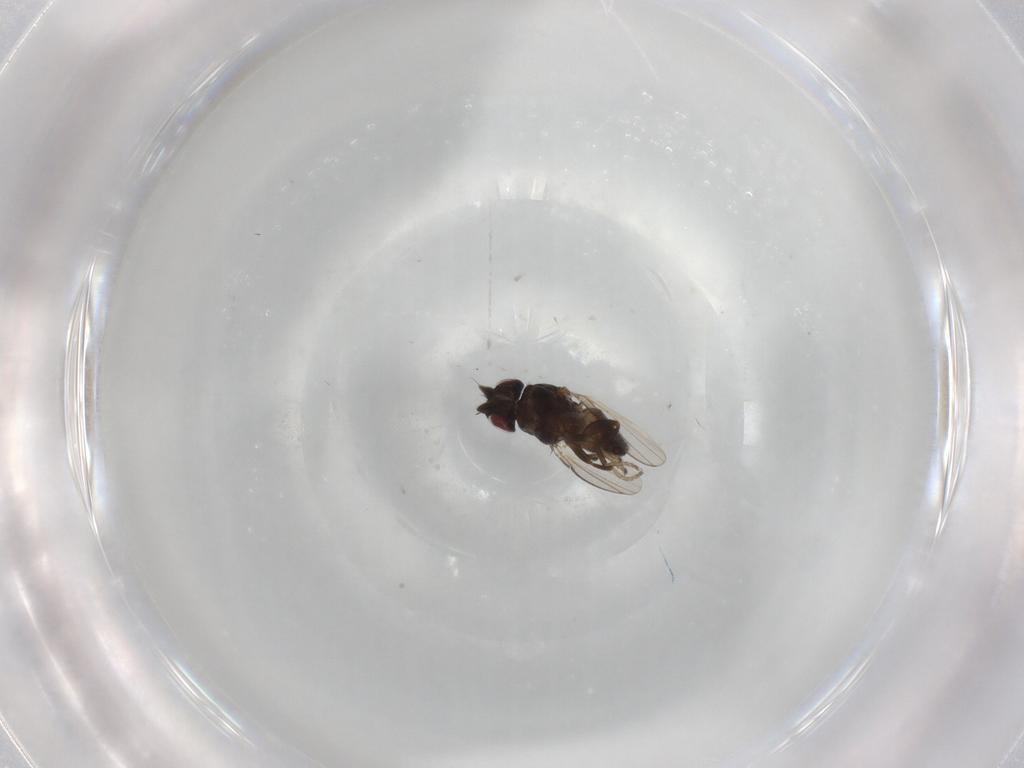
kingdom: Animalia
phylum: Arthropoda
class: Insecta
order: Diptera
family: Milichiidae
